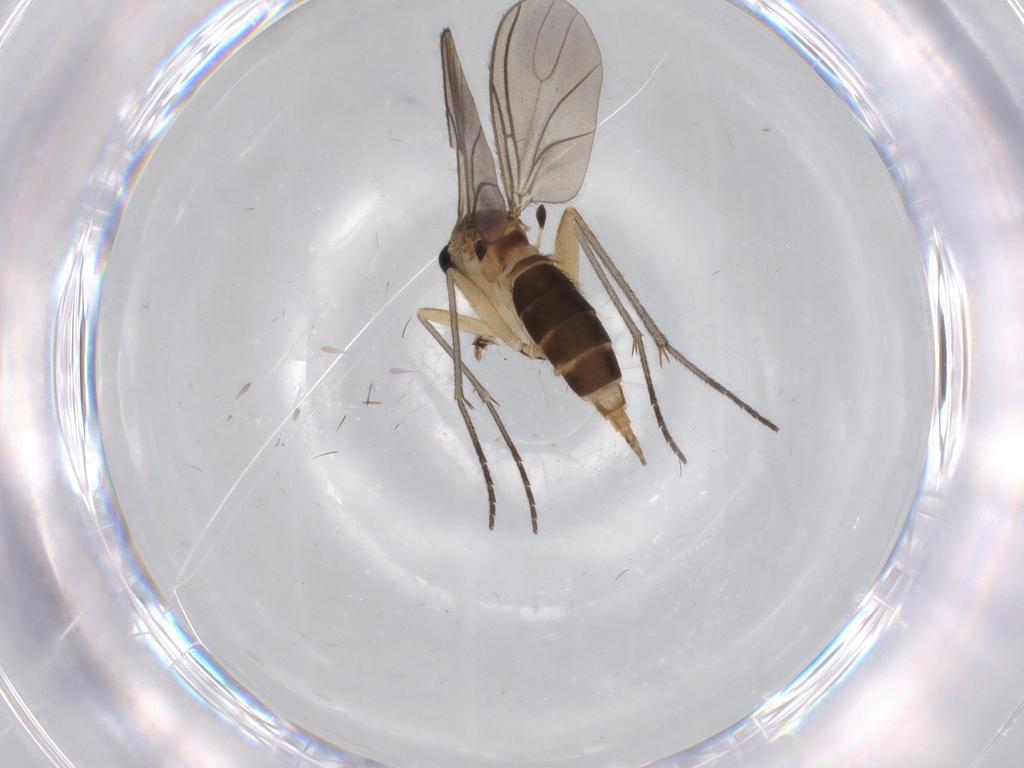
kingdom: Animalia
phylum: Arthropoda
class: Insecta
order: Diptera
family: Sciaridae
